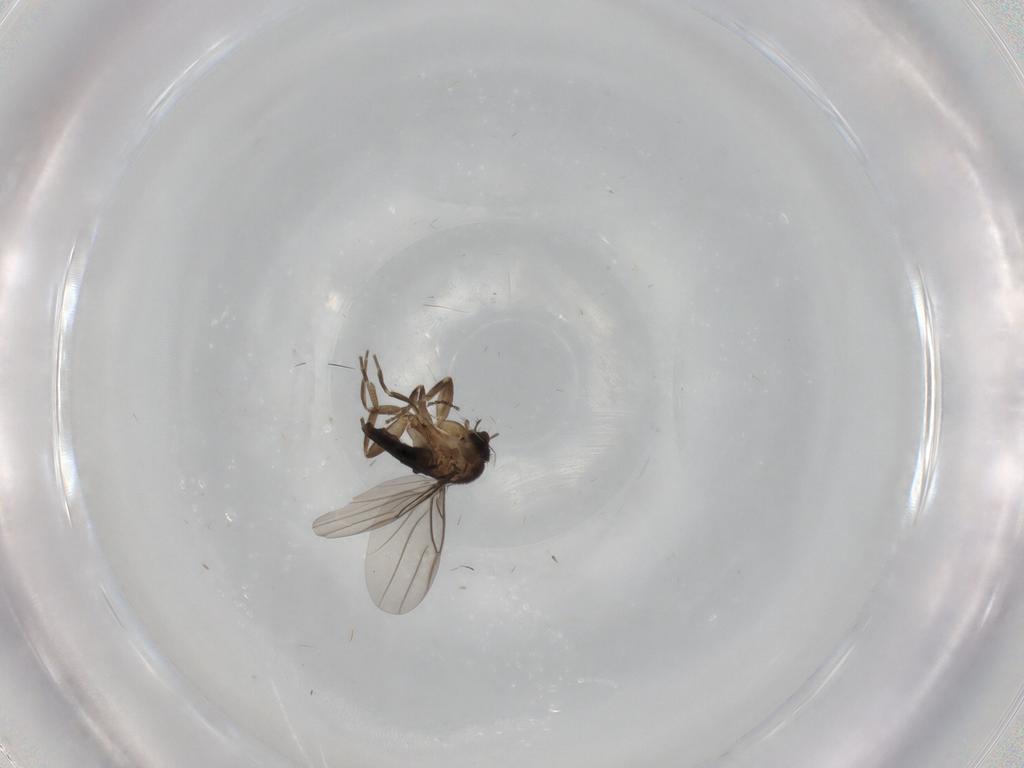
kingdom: Animalia
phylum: Arthropoda
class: Insecta
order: Diptera
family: Phoridae
